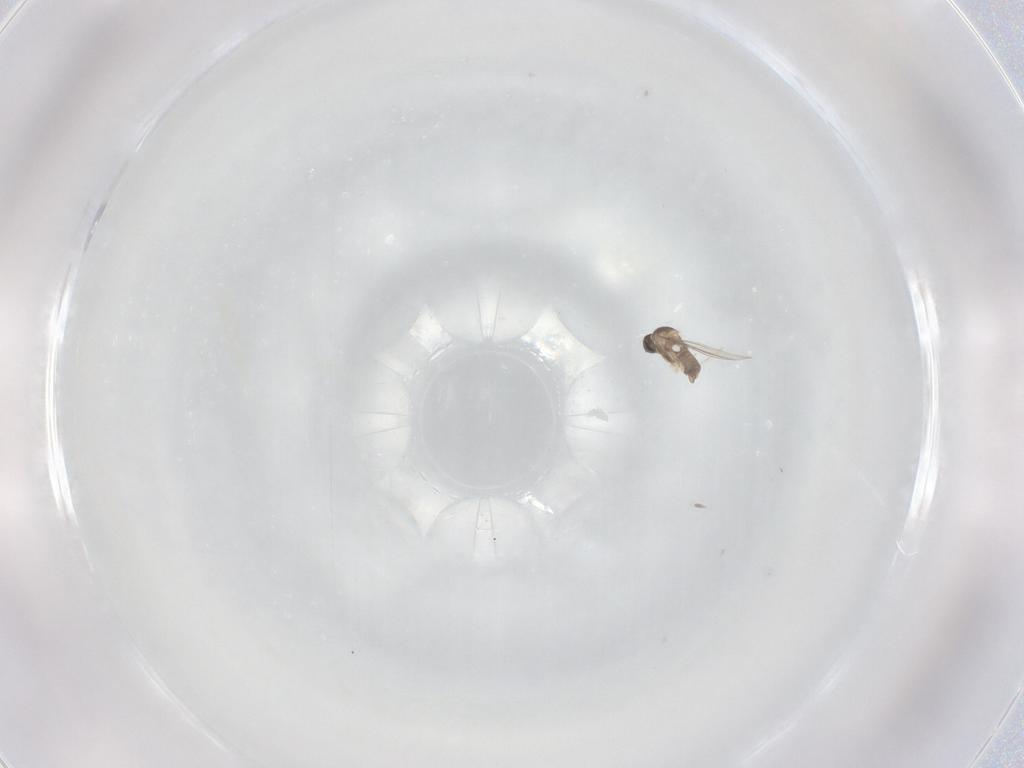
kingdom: Animalia
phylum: Arthropoda
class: Insecta
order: Diptera
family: Cecidomyiidae
